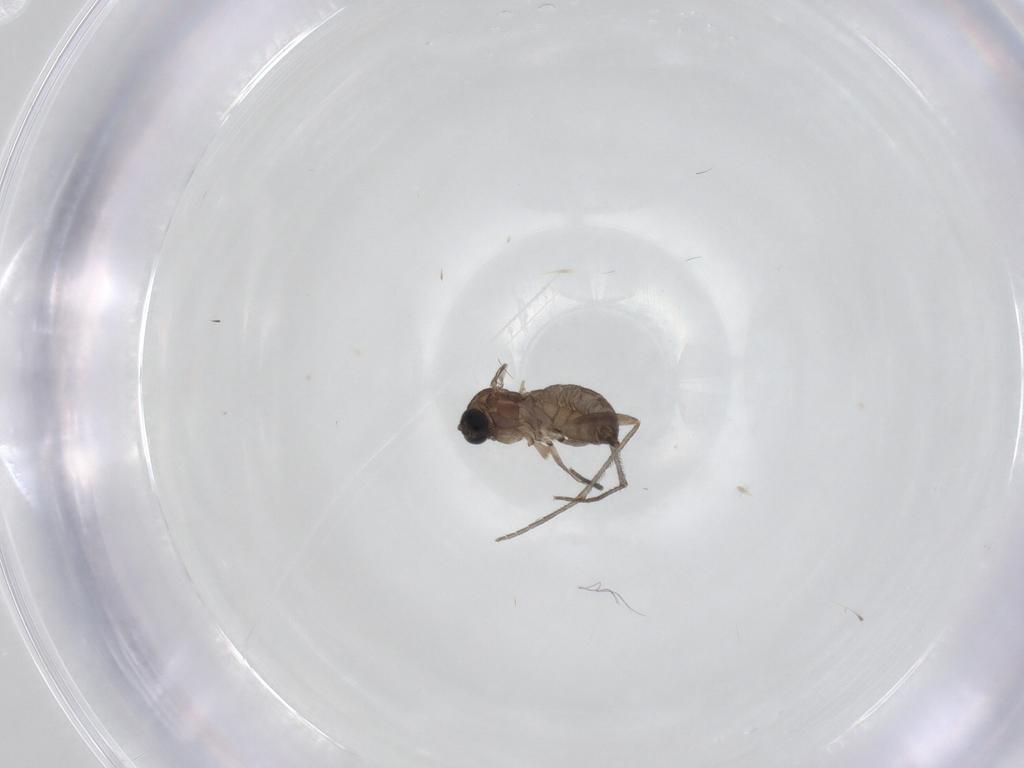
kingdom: Animalia
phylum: Arthropoda
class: Insecta
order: Diptera
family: Sciaridae
